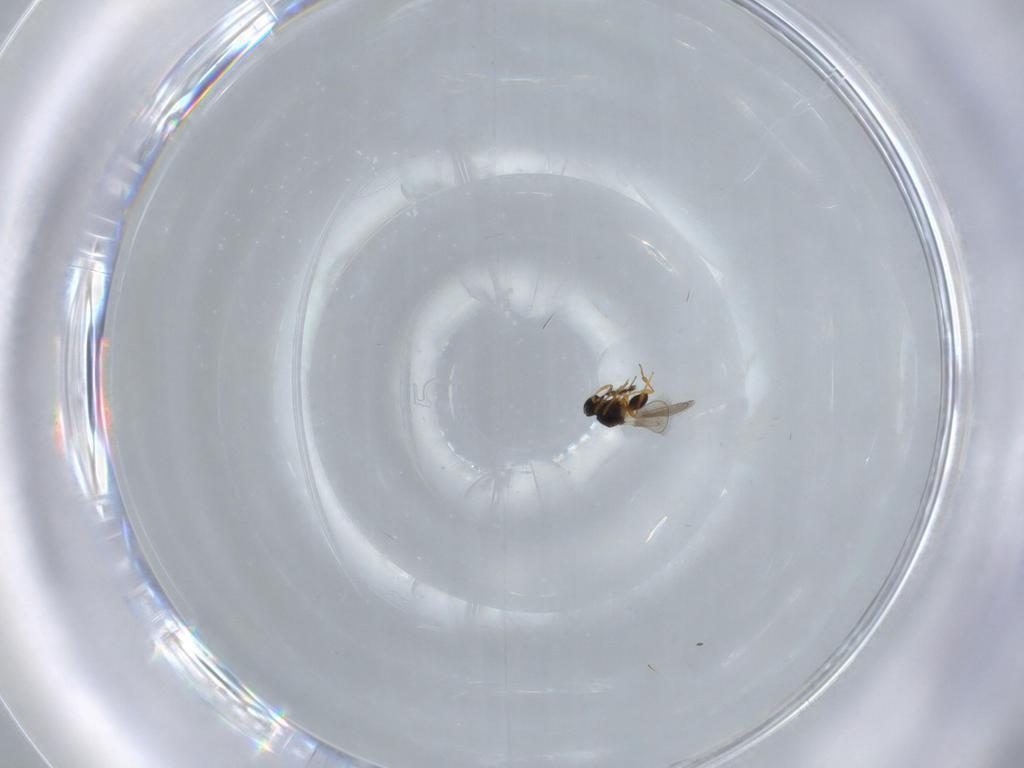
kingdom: Animalia
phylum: Arthropoda
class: Insecta
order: Hymenoptera
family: Platygastridae
